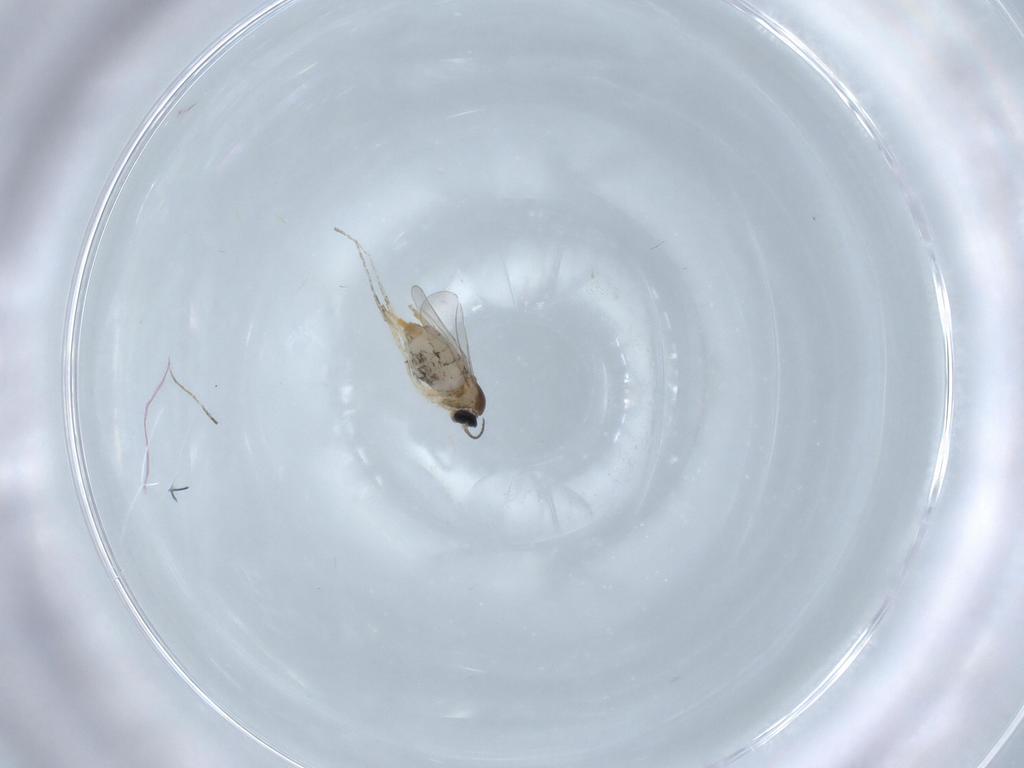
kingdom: Animalia
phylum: Arthropoda
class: Insecta
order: Diptera
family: Cecidomyiidae
